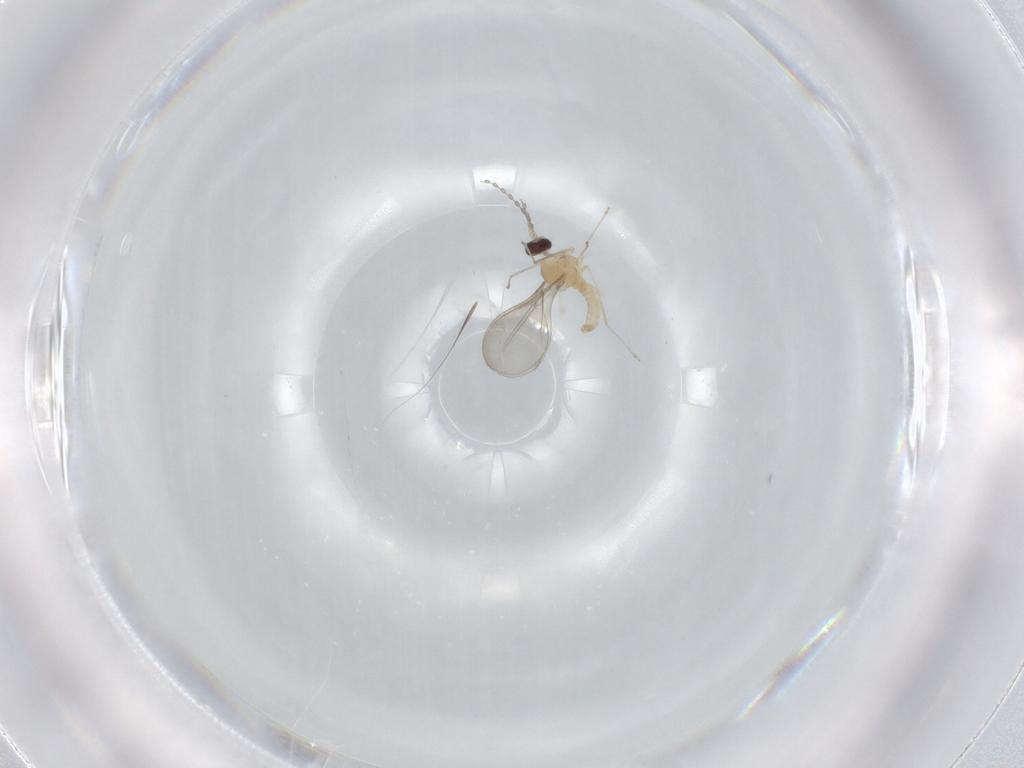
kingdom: Animalia
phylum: Arthropoda
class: Insecta
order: Diptera
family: Cecidomyiidae
